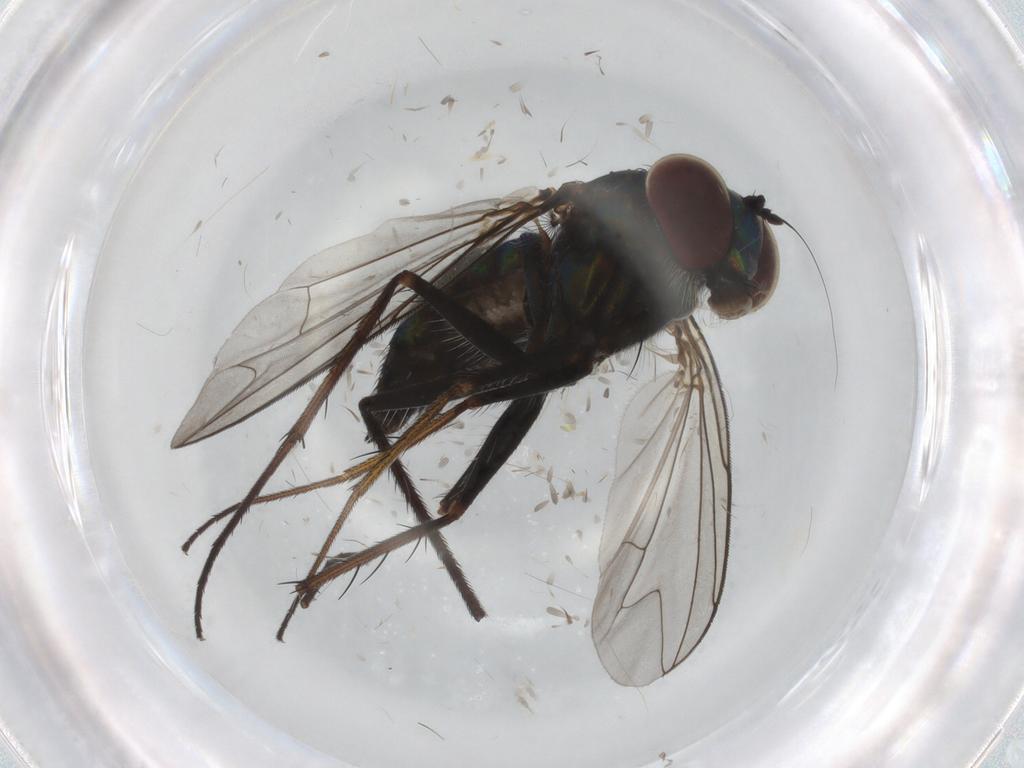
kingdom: Animalia
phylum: Arthropoda
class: Insecta
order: Diptera
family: Dolichopodidae
